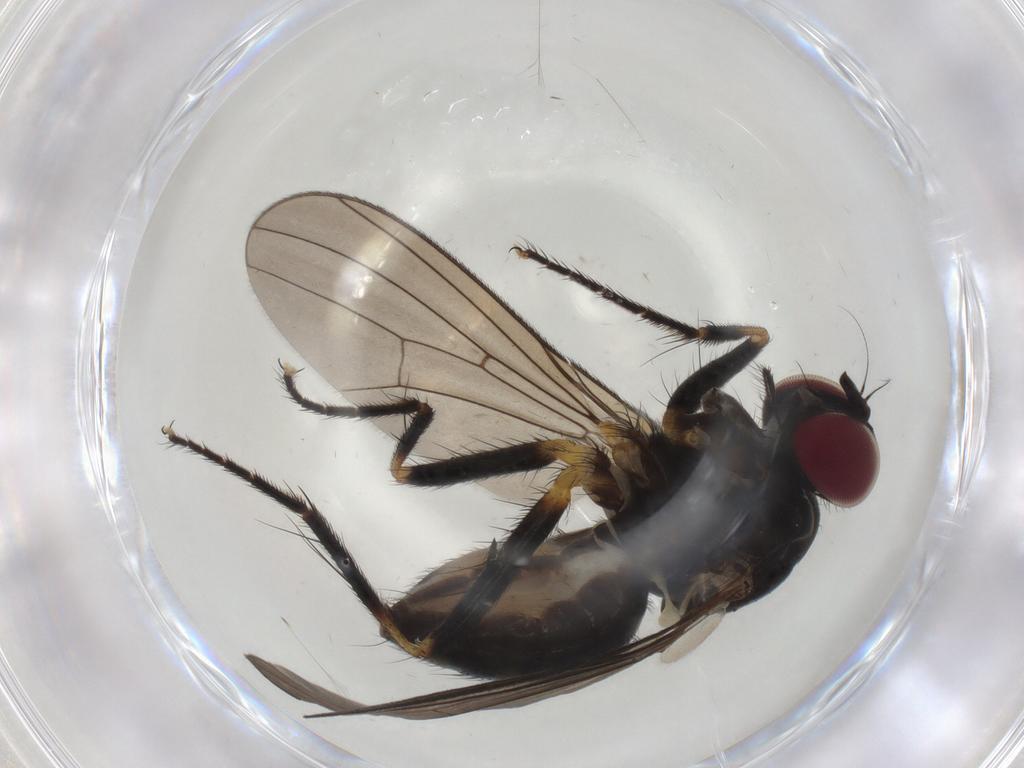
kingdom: Animalia
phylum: Arthropoda
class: Insecta
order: Diptera
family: Anthomyiidae
